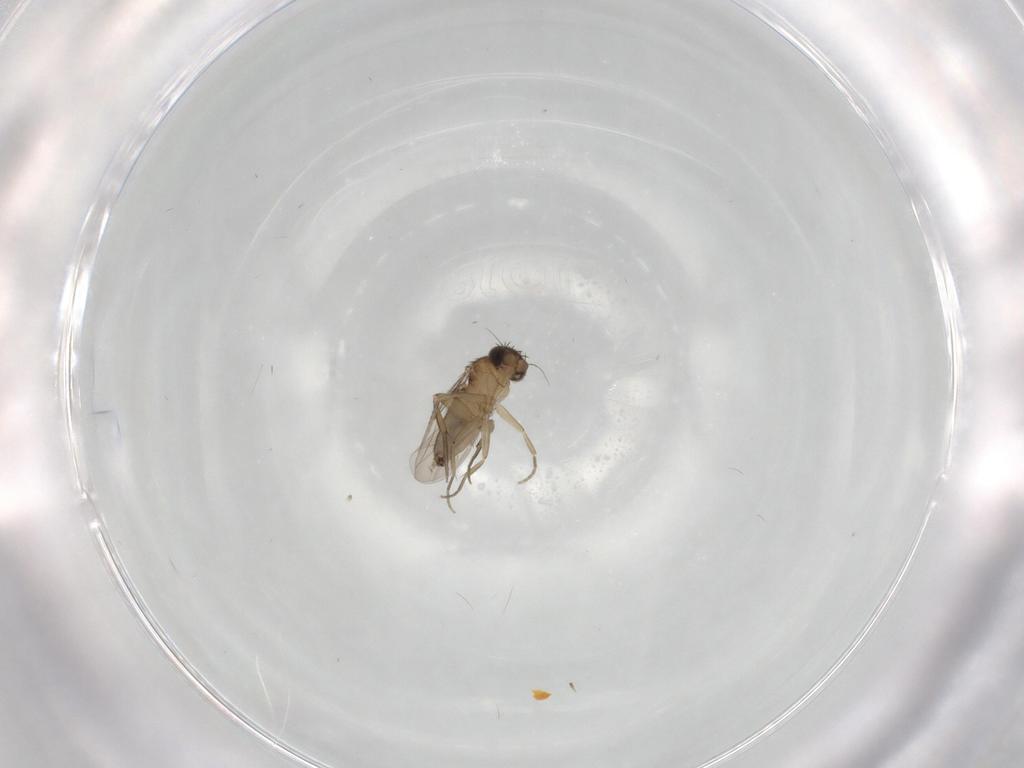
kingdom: Animalia
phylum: Arthropoda
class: Insecta
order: Diptera
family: Phoridae
